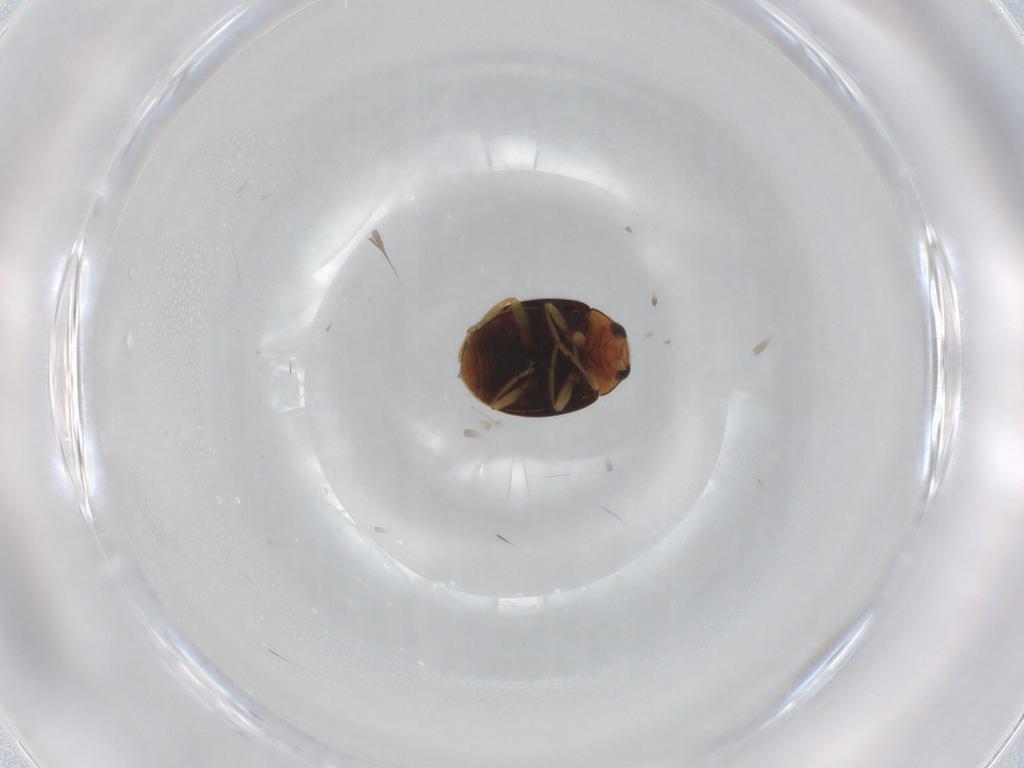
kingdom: Animalia
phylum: Arthropoda
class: Insecta
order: Coleoptera
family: Coccinellidae
